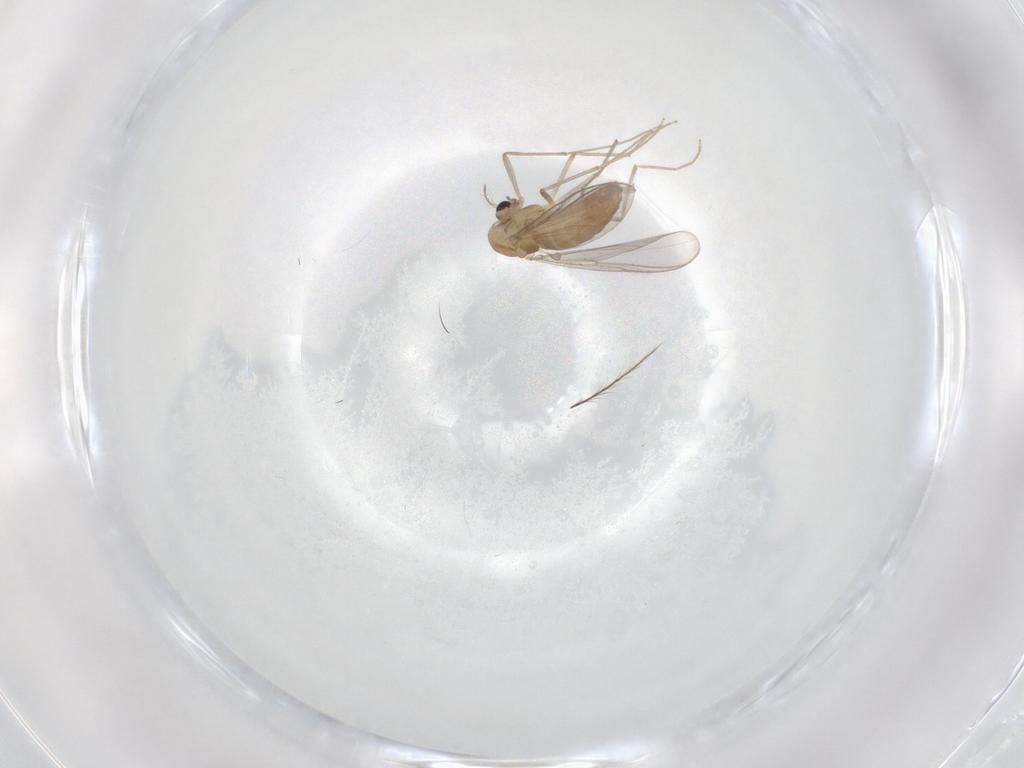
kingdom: Animalia
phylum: Arthropoda
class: Insecta
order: Diptera
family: Chironomidae
